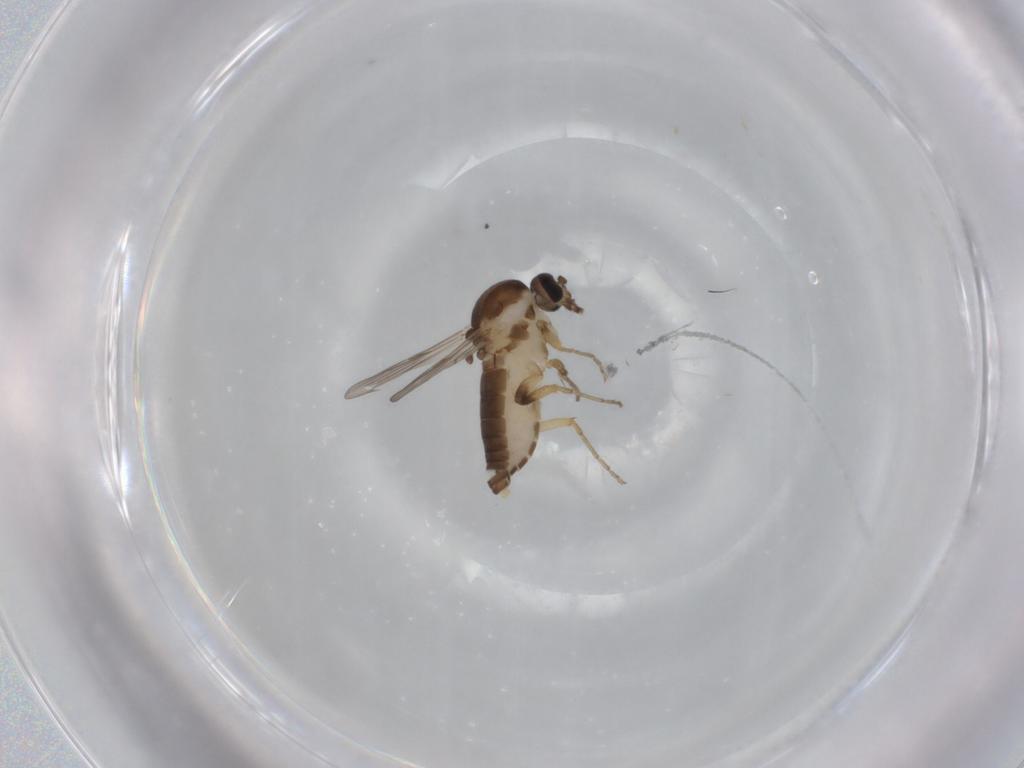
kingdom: Animalia
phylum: Arthropoda
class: Insecta
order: Diptera
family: Ceratopogonidae
